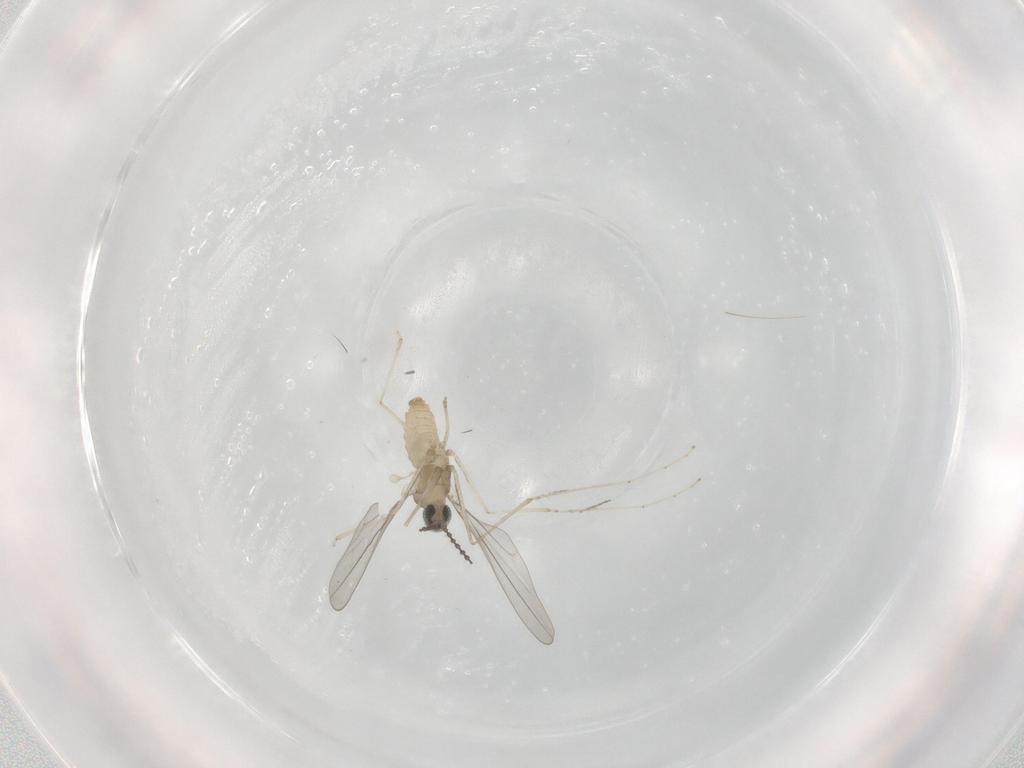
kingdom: Animalia
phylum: Arthropoda
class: Insecta
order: Diptera
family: Cecidomyiidae
